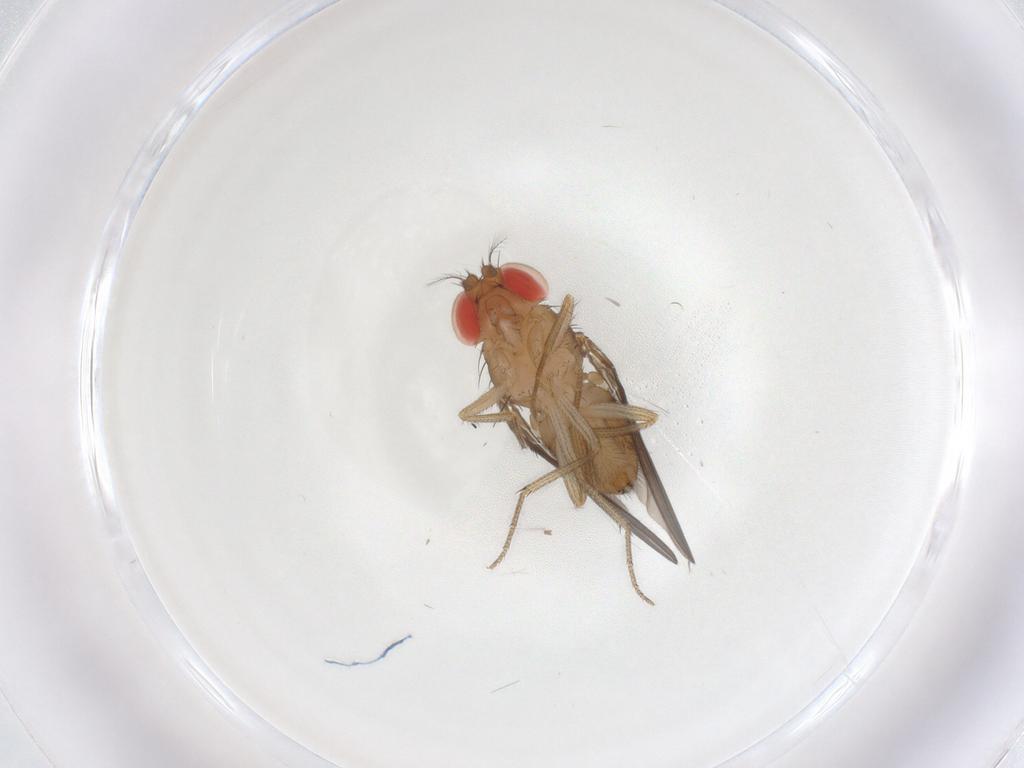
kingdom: Animalia
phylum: Arthropoda
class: Insecta
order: Diptera
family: Drosophilidae
